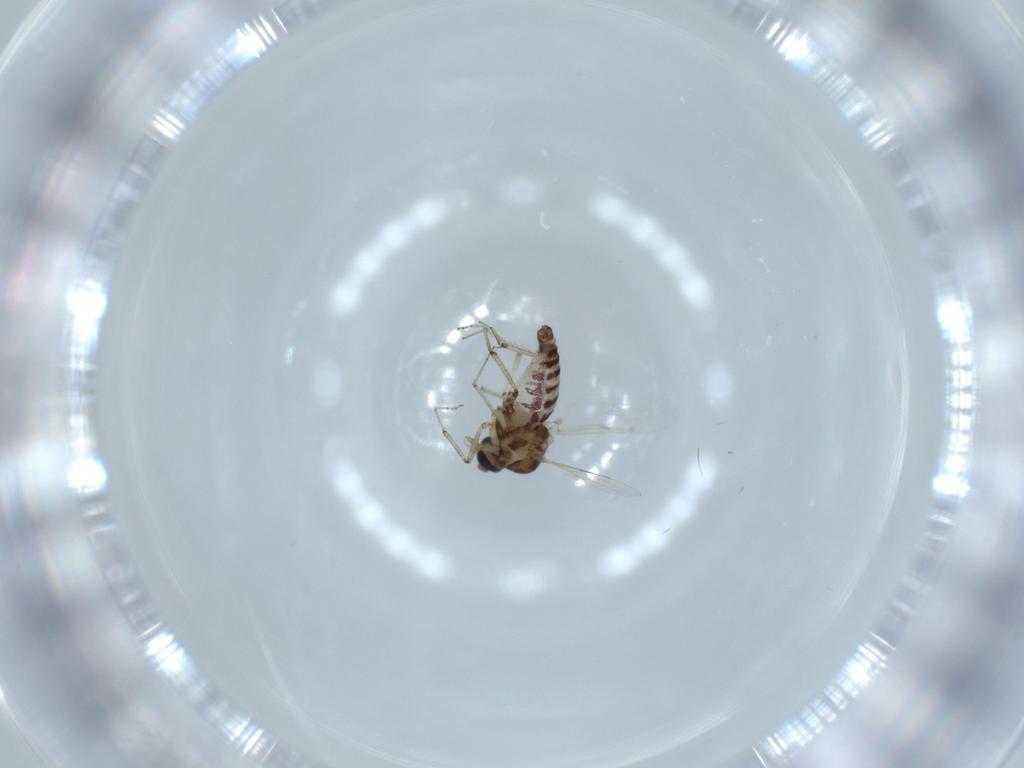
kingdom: Animalia
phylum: Arthropoda
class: Insecta
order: Diptera
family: Ceratopogonidae
